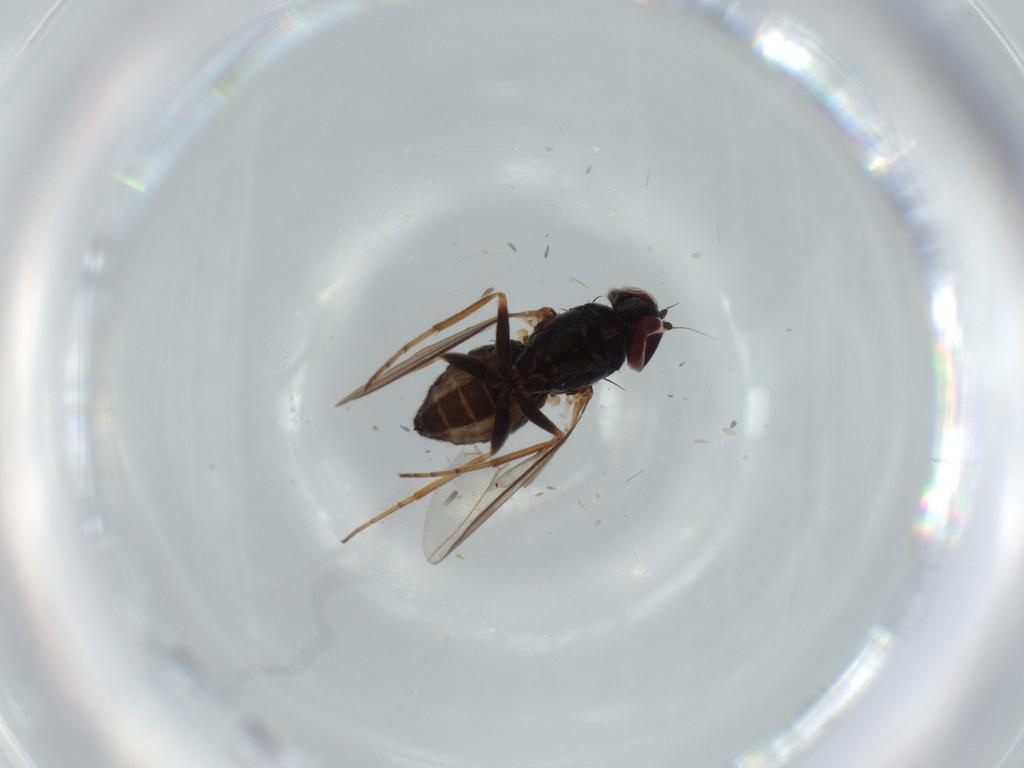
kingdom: Animalia
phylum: Arthropoda
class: Insecta
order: Diptera
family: Dolichopodidae
